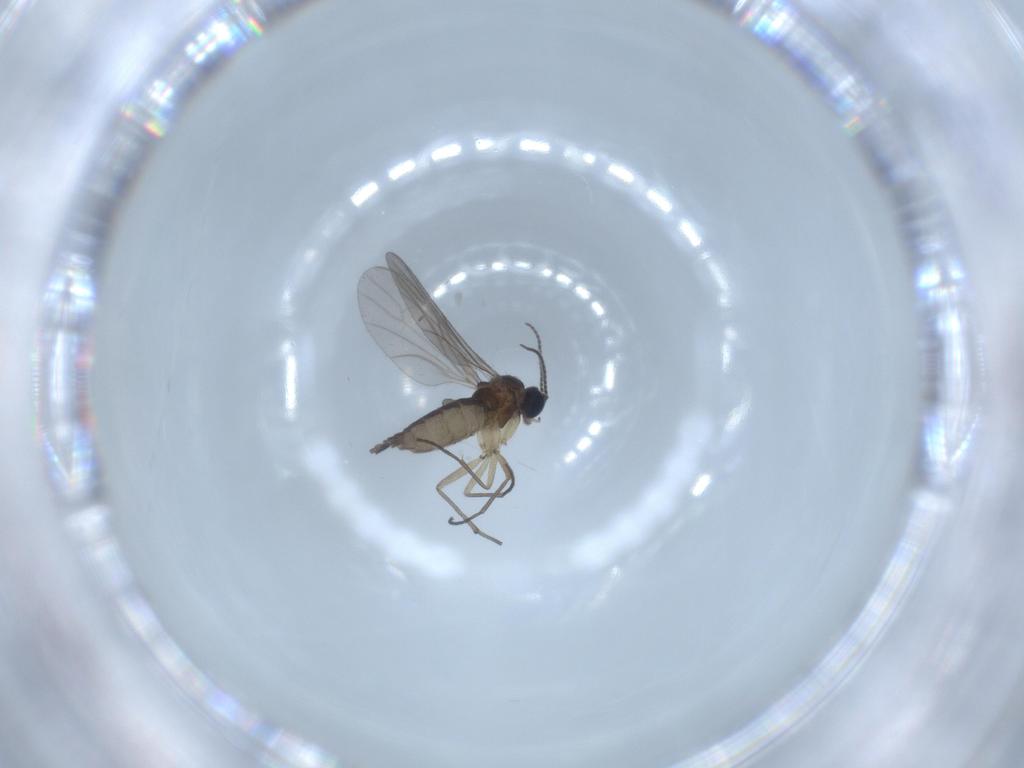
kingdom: Animalia
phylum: Arthropoda
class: Insecta
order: Diptera
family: Sciaridae
